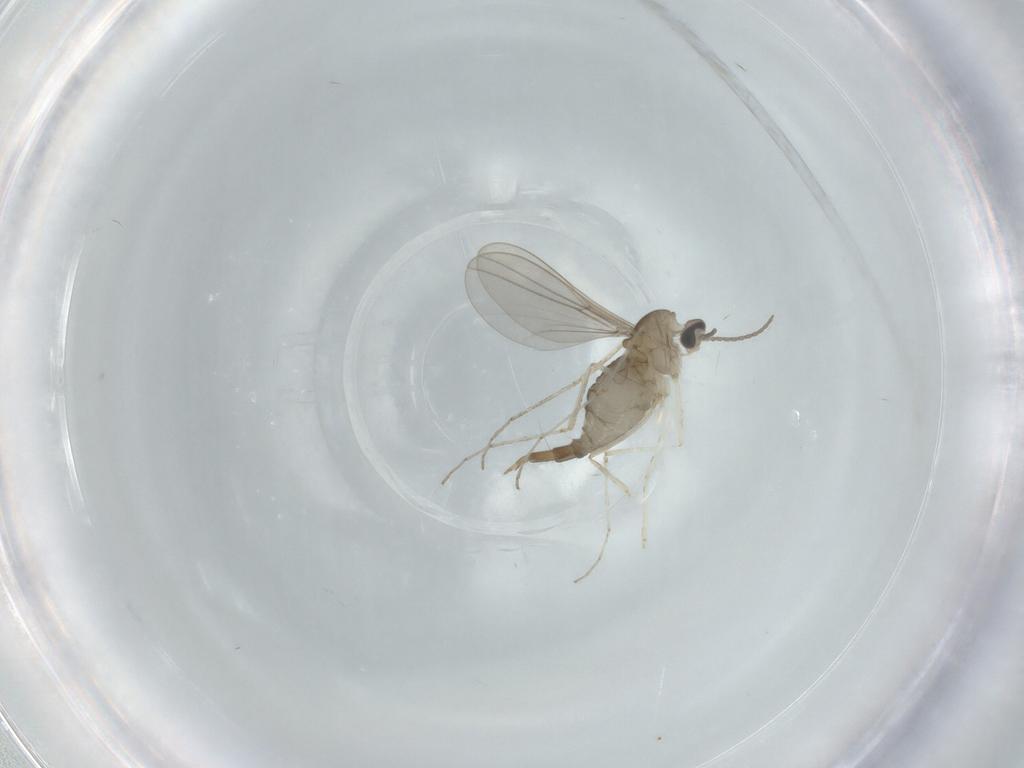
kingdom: Animalia
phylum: Arthropoda
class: Insecta
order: Diptera
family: Cecidomyiidae
